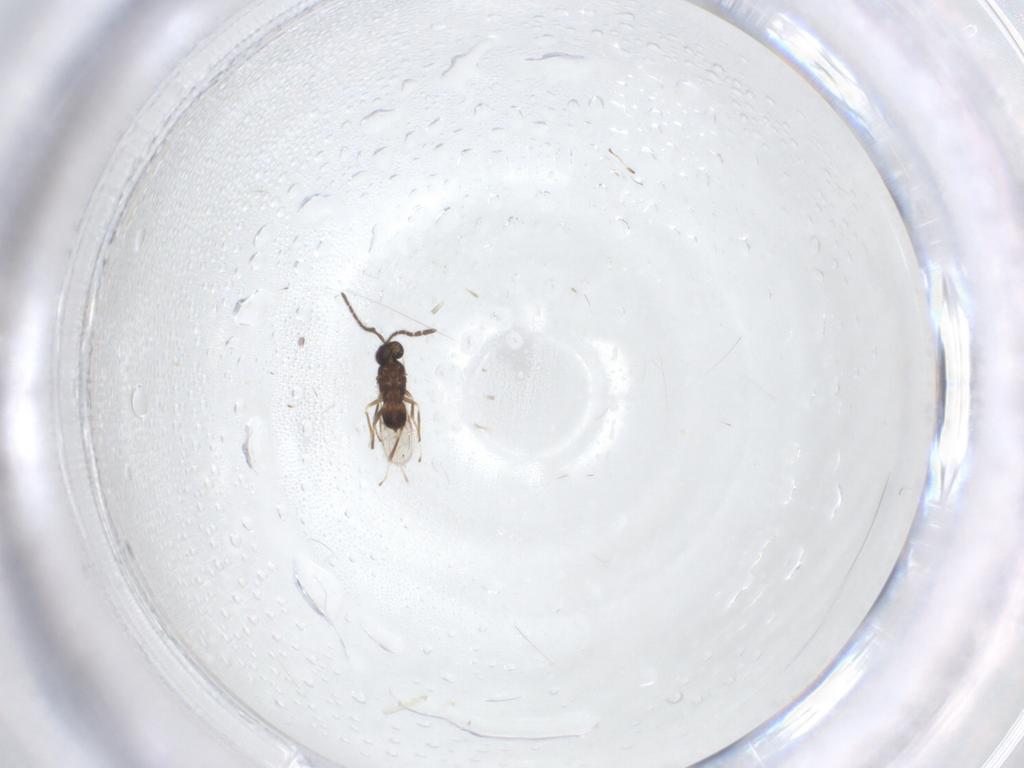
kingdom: Animalia
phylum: Arthropoda
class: Insecta
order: Hymenoptera
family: Encyrtidae
